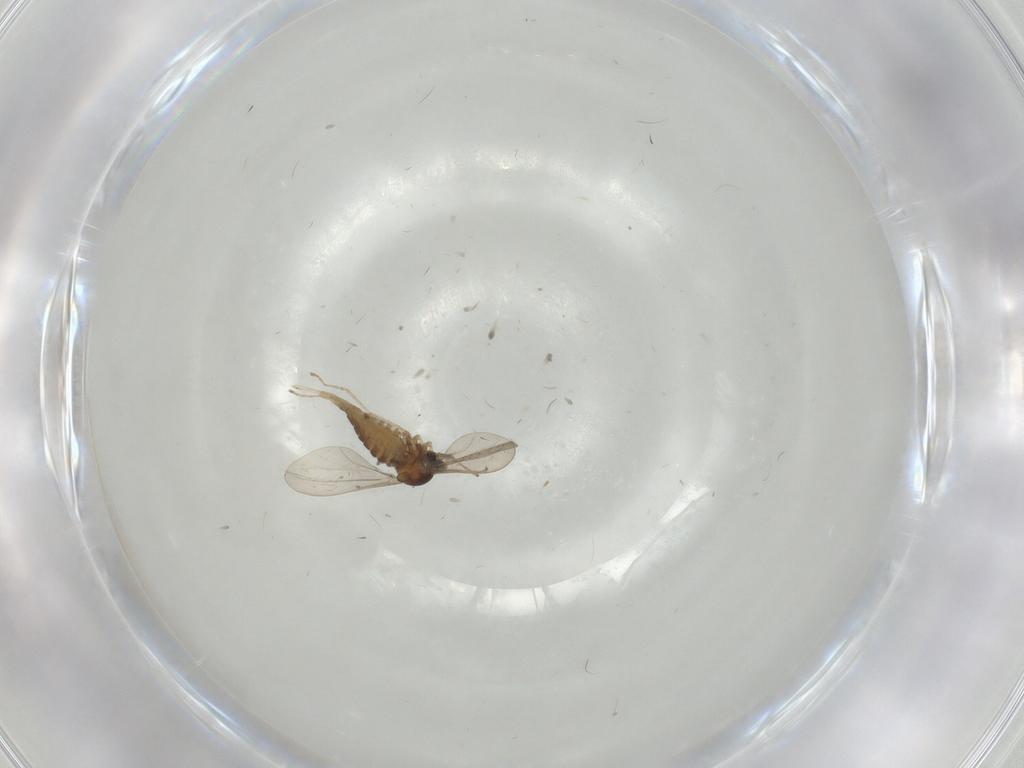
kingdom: Animalia
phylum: Arthropoda
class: Insecta
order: Diptera
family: Cecidomyiidae
